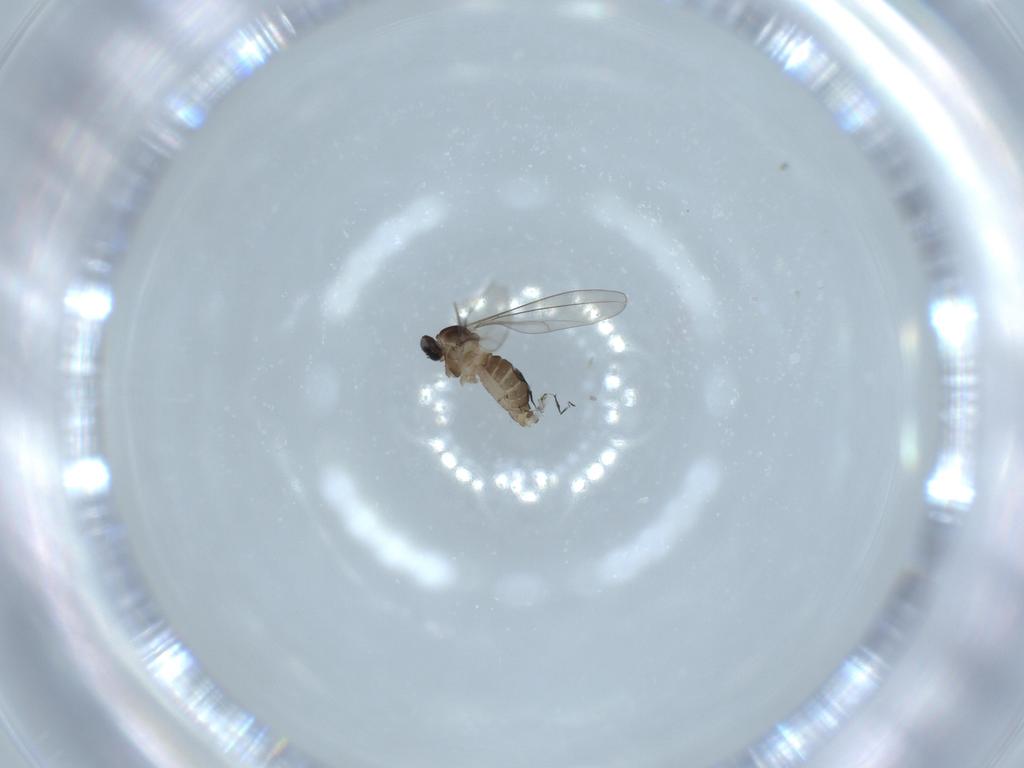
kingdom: Animalia
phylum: Arthropoda
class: Insecta
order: Diptera
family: Cecidomyiidae
